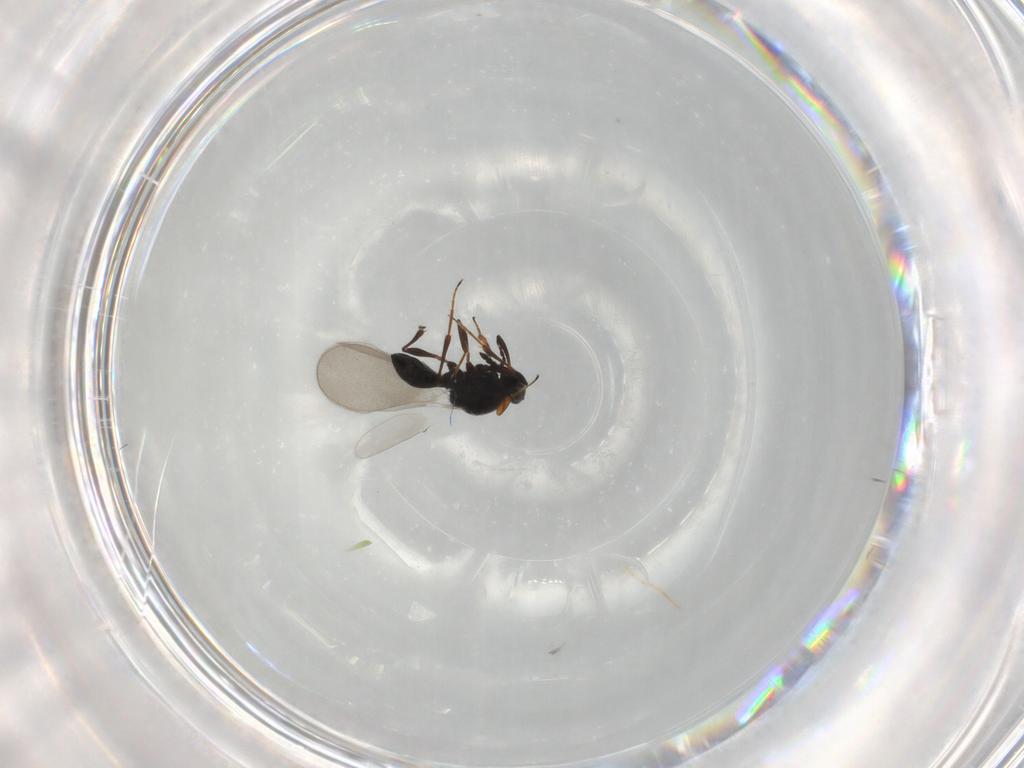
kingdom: Animalia
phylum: Arthropoda
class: Insecta
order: Hymenoptera
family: Platygastridae
